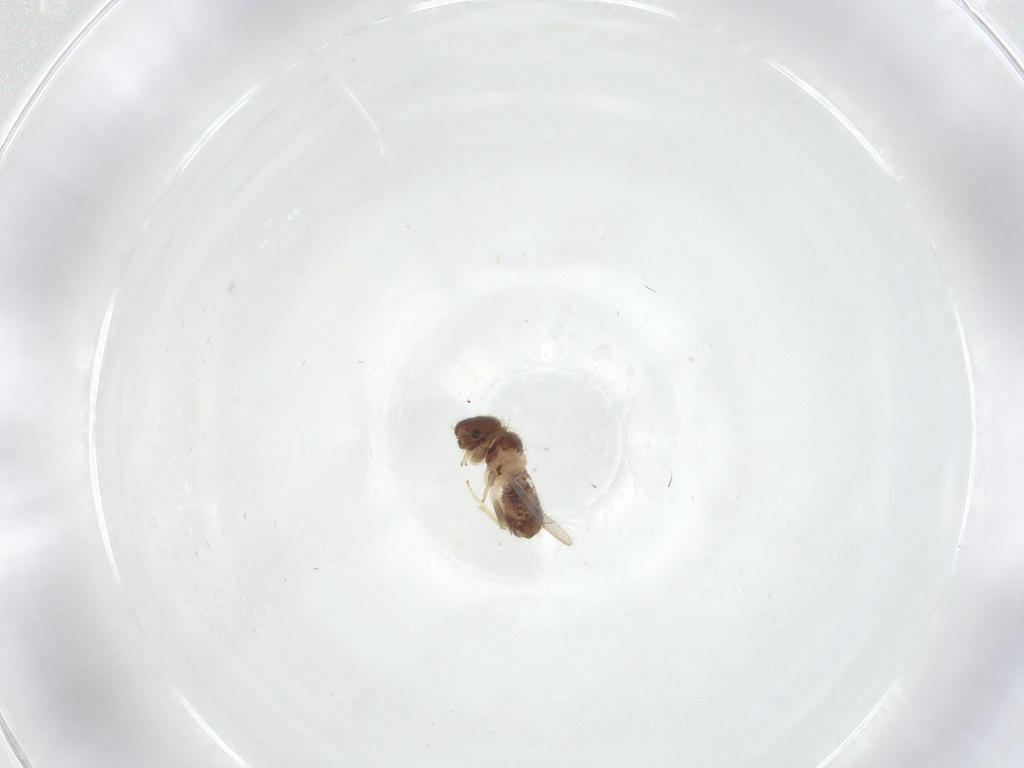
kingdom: Animalia
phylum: Arthropoda
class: Insecta
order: Psocodea
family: Archipsocidae
